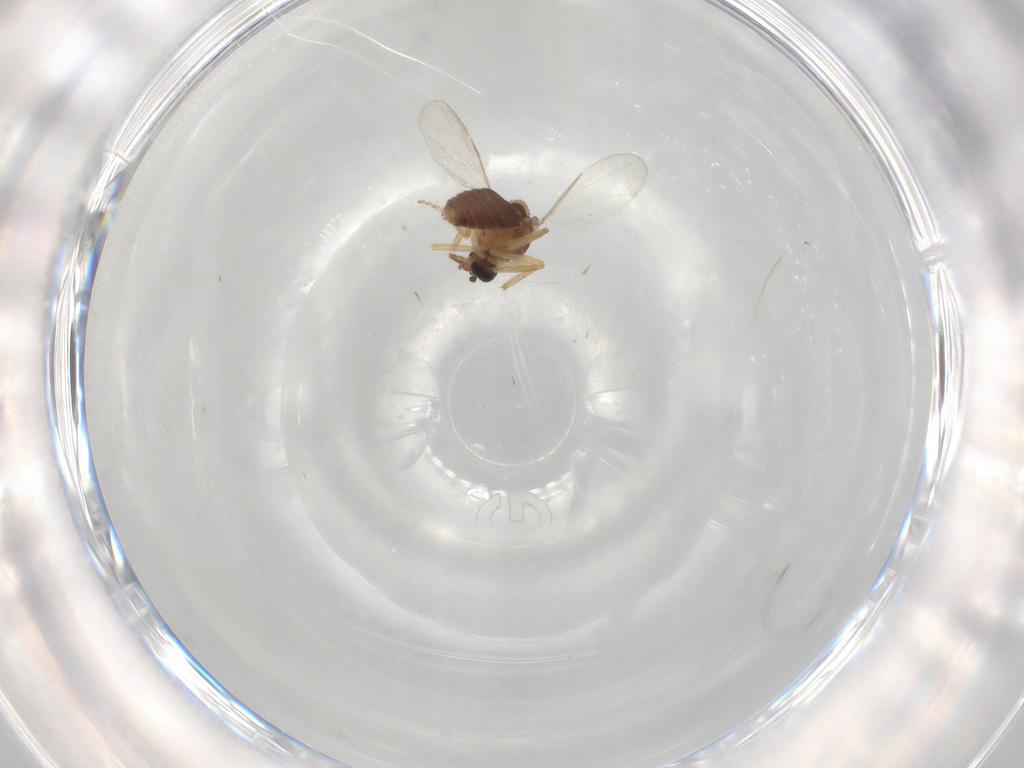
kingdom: Animalia
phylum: Arthropoda
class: Insecta
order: Diptera
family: Ceratopogonidae
